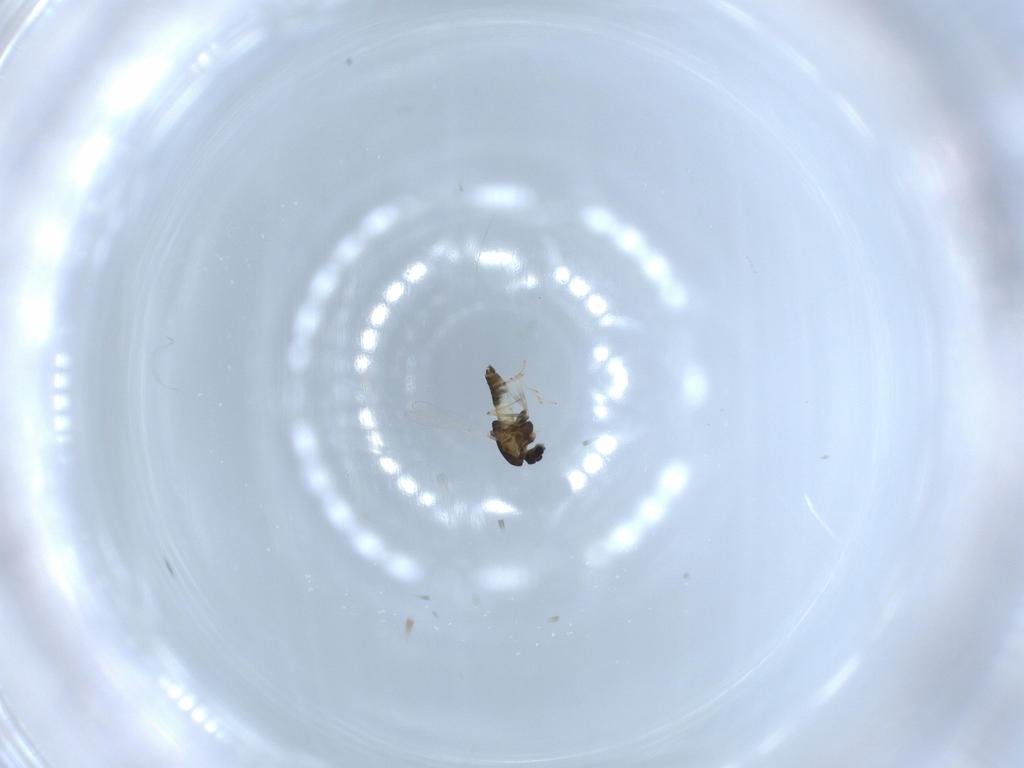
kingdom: Animalia
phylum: Arthropoda
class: Insecta
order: Diptera
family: Chironomidae
